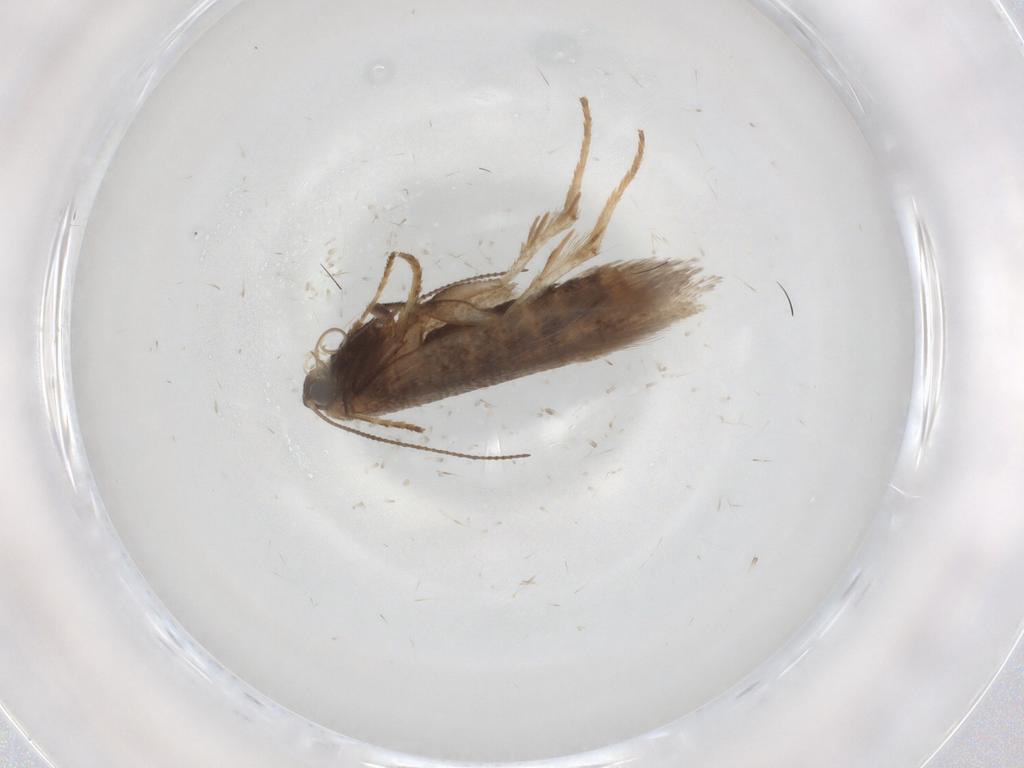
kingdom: Animalia
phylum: Arthropoda
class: Insecta
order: Lepidoptera
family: Nepticulidae
